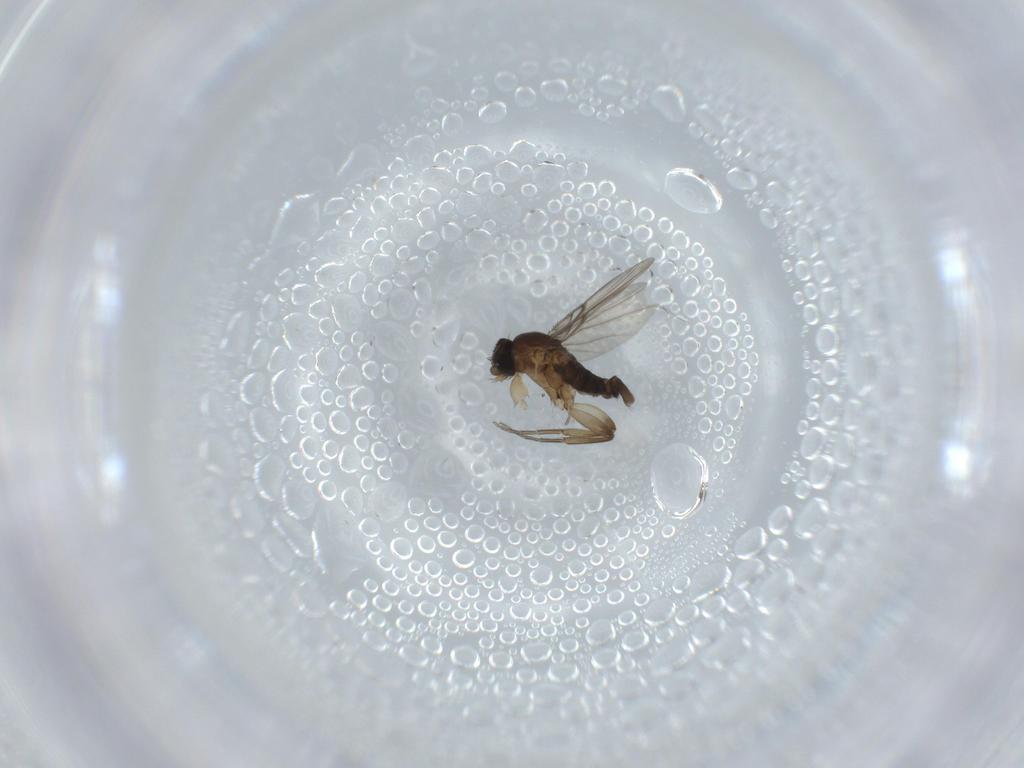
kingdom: Animalia
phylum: Arthropoda
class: Insecta
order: Diptera
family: Phoridae
